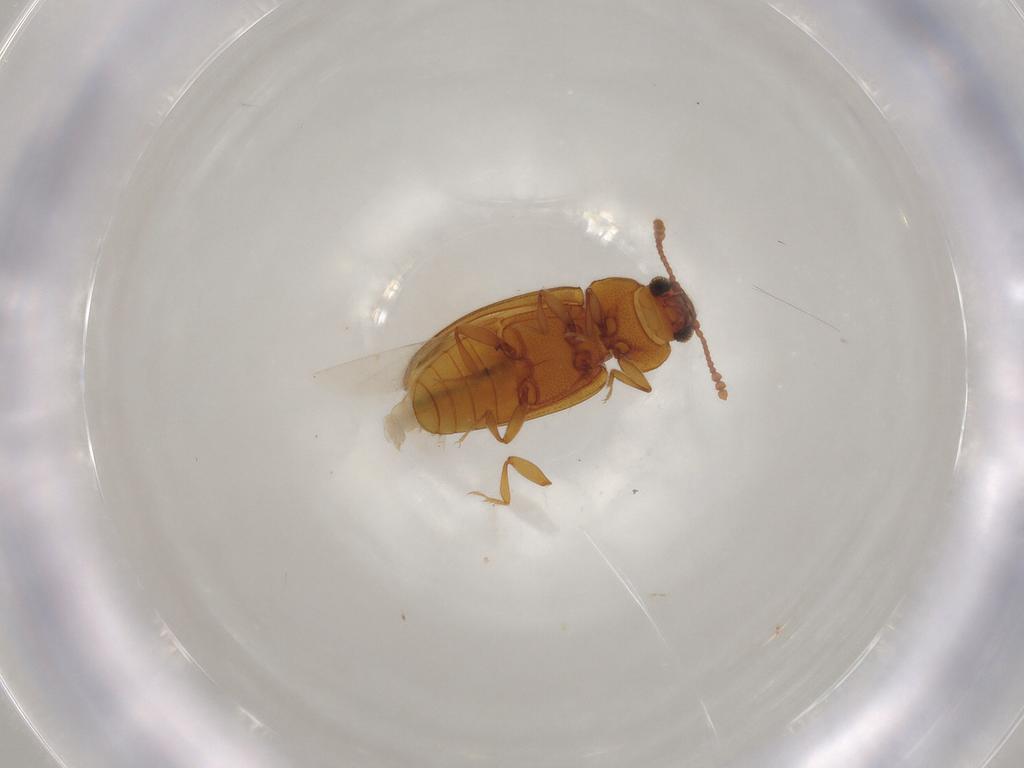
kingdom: Animalia
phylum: Arthropoda
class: Insecta
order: Coleoptera
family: Erotylidae
